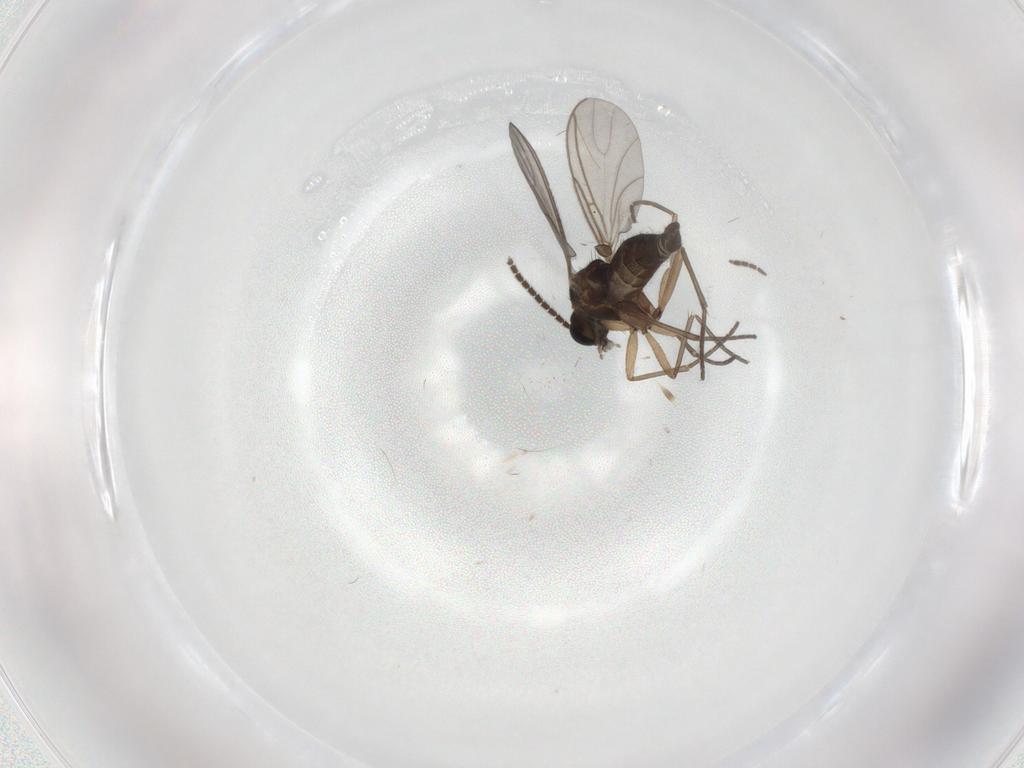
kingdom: Animalia
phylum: Arthropoda
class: Insecta
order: Diptera
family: Sciaridae
